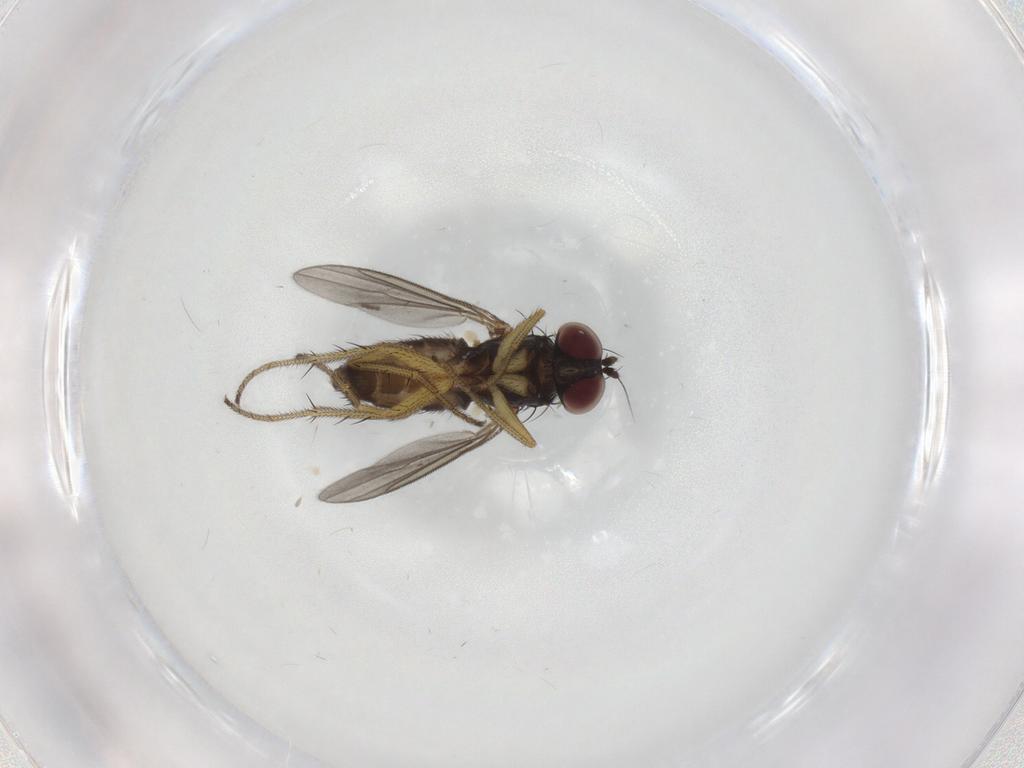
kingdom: Animalia
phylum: Arthropoda
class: Insecta
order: Diptera
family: Dolichopodidae
